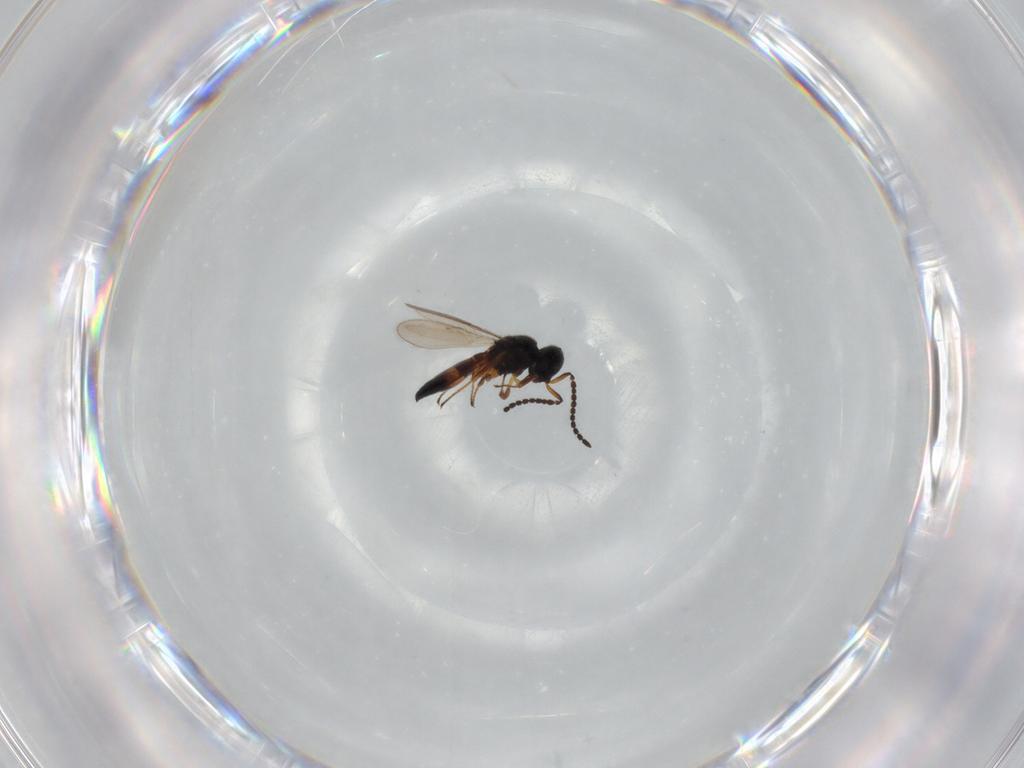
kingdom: Animalia
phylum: Arthropoda
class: Insecta
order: Hymenoptera
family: Scelionidae
